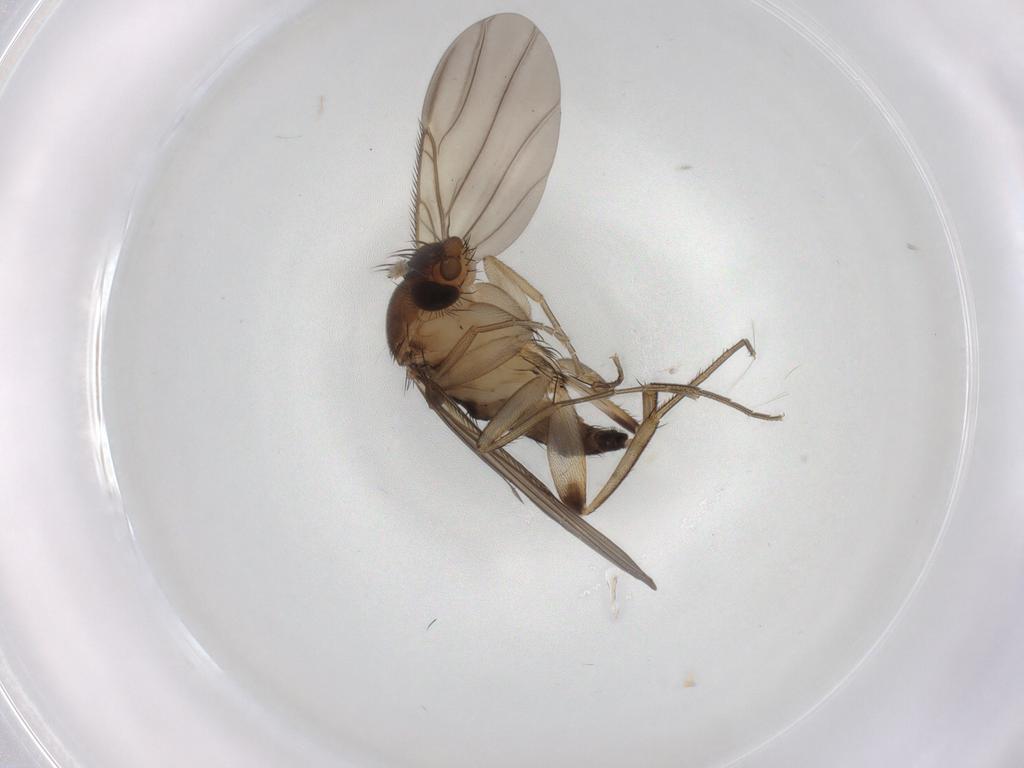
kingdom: Animalia
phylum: Arthropoda
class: Insecta
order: Diptera
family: Phoridae
